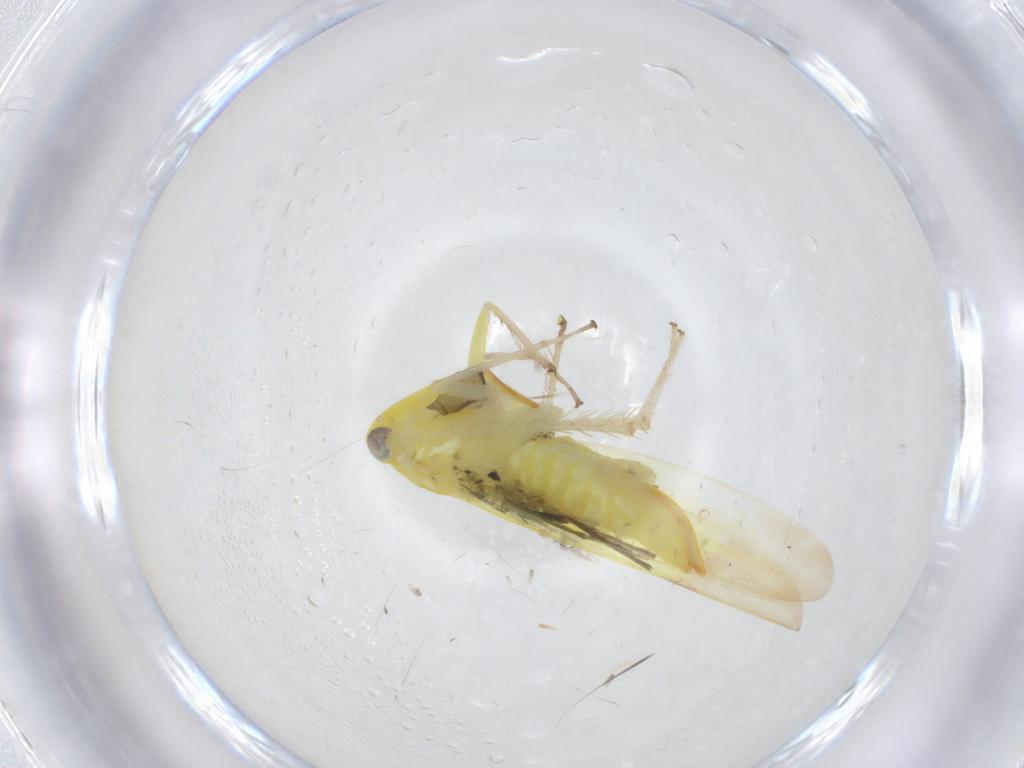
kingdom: Animalia
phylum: Arthropoda
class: Insecta
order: Hemiptera
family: Cicadellidae
